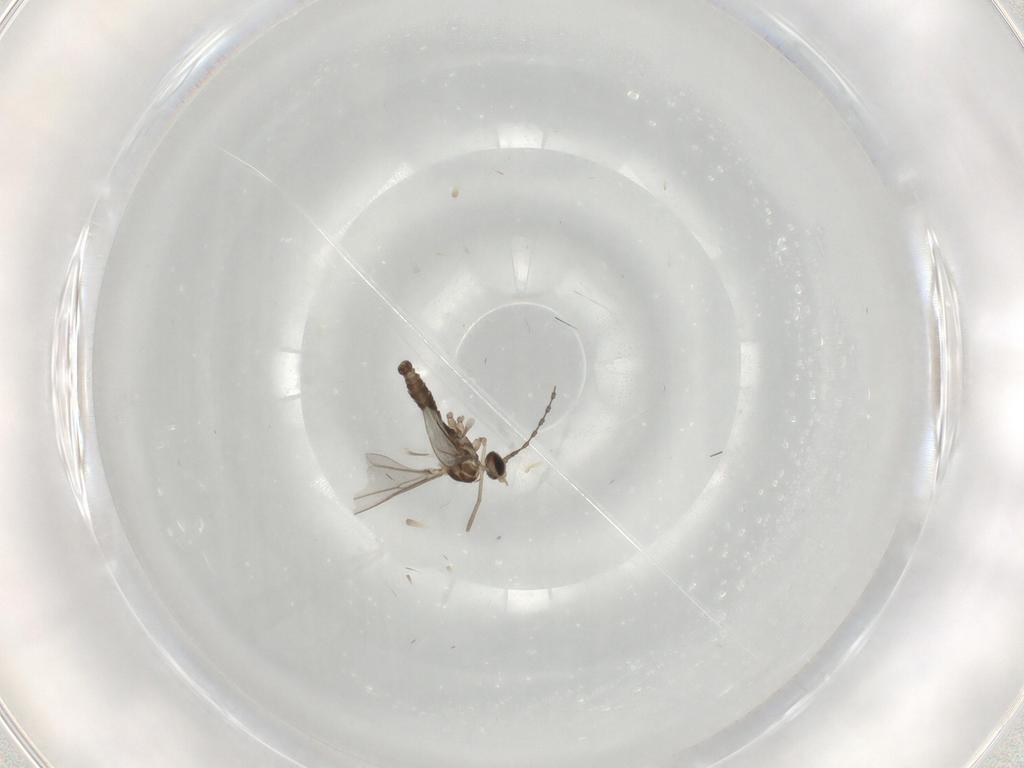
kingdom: Animalia
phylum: Arthropoda
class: Insecta
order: Diptera
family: Cecidomyiidae
